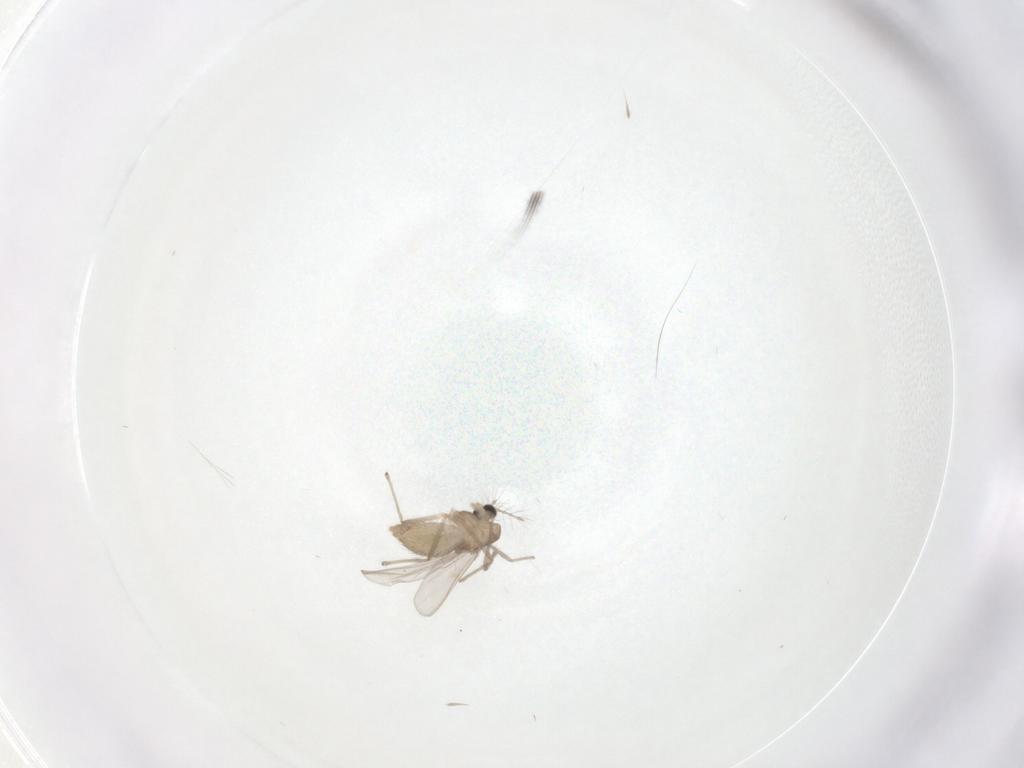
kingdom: Animalia
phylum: Arthropoda
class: Insecta
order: Diptera
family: Chironomidae
